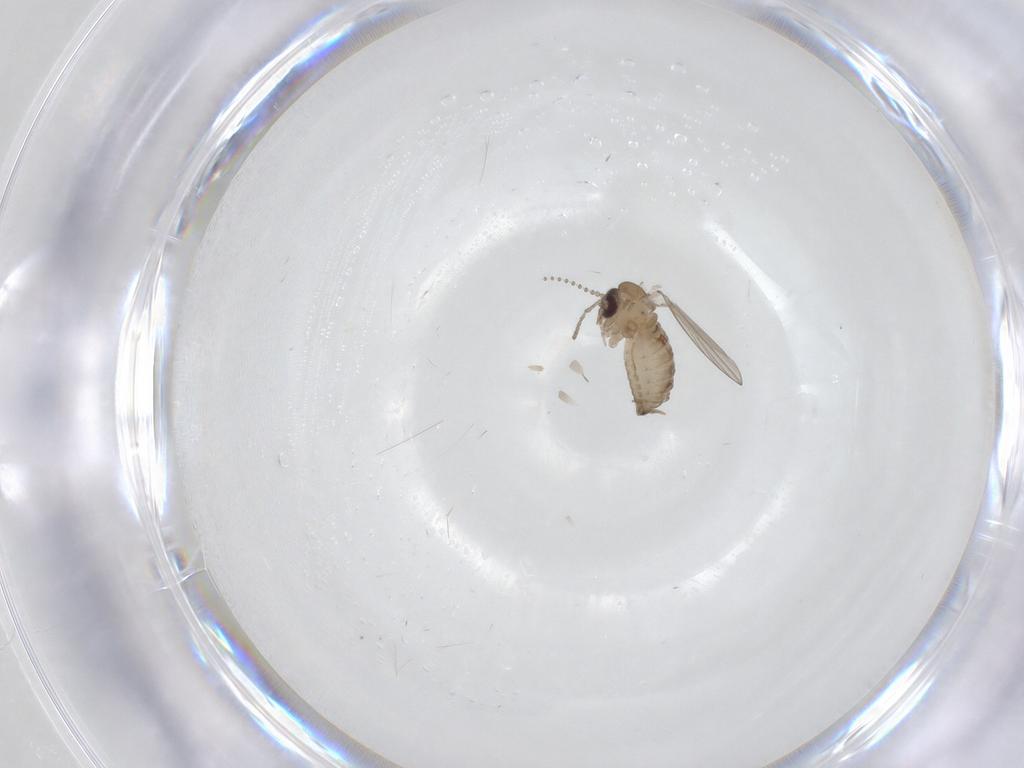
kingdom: Animalia
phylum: Arthropoda
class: Insecta
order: Diptera
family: Psychodidae
